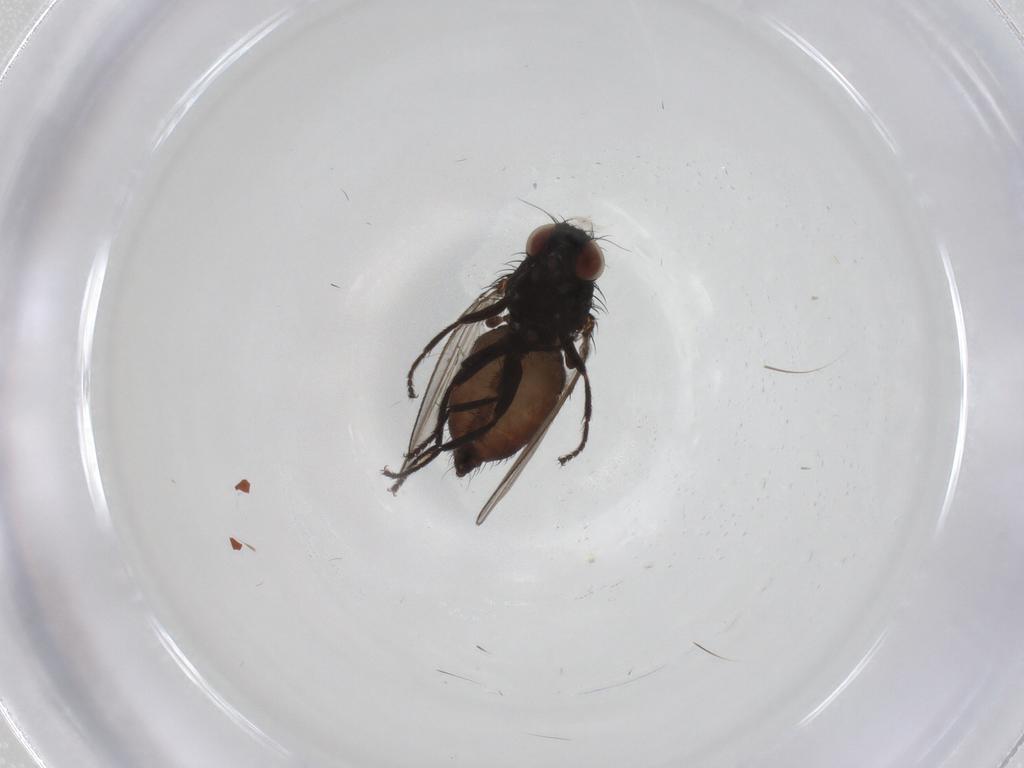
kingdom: Animalia
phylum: Arthropoda
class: Insecta
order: Diptera
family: Milichiidae
